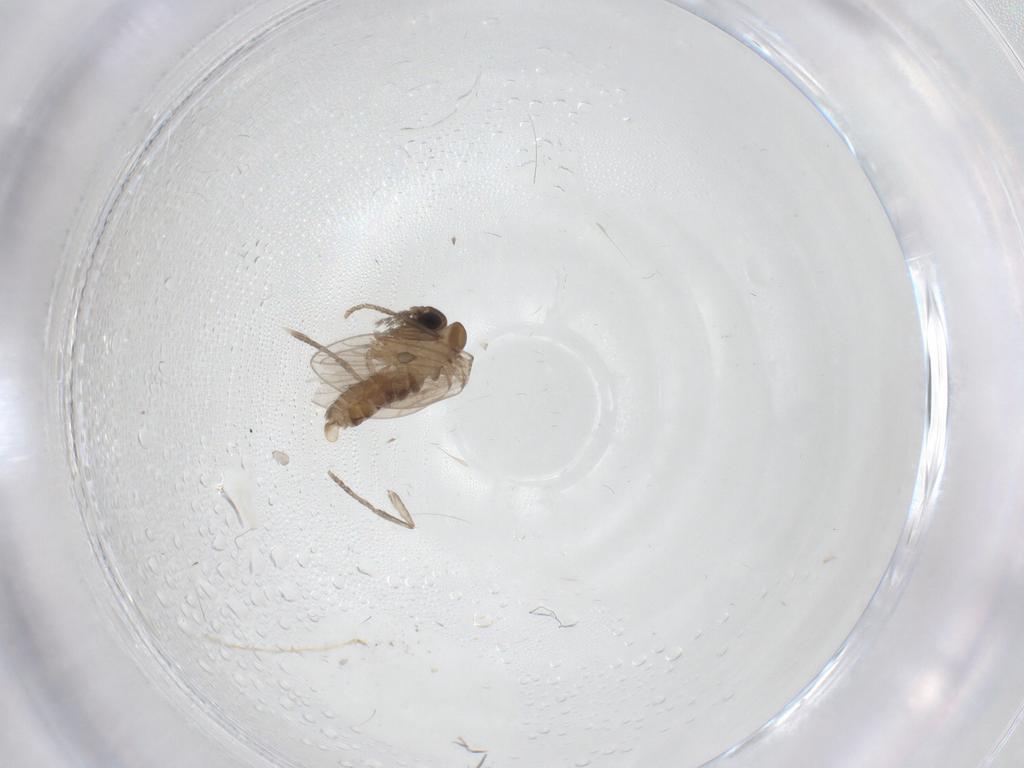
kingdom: Animalia
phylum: Arthropoda
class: Insecta
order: Diptera
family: Ceratopogonidae
